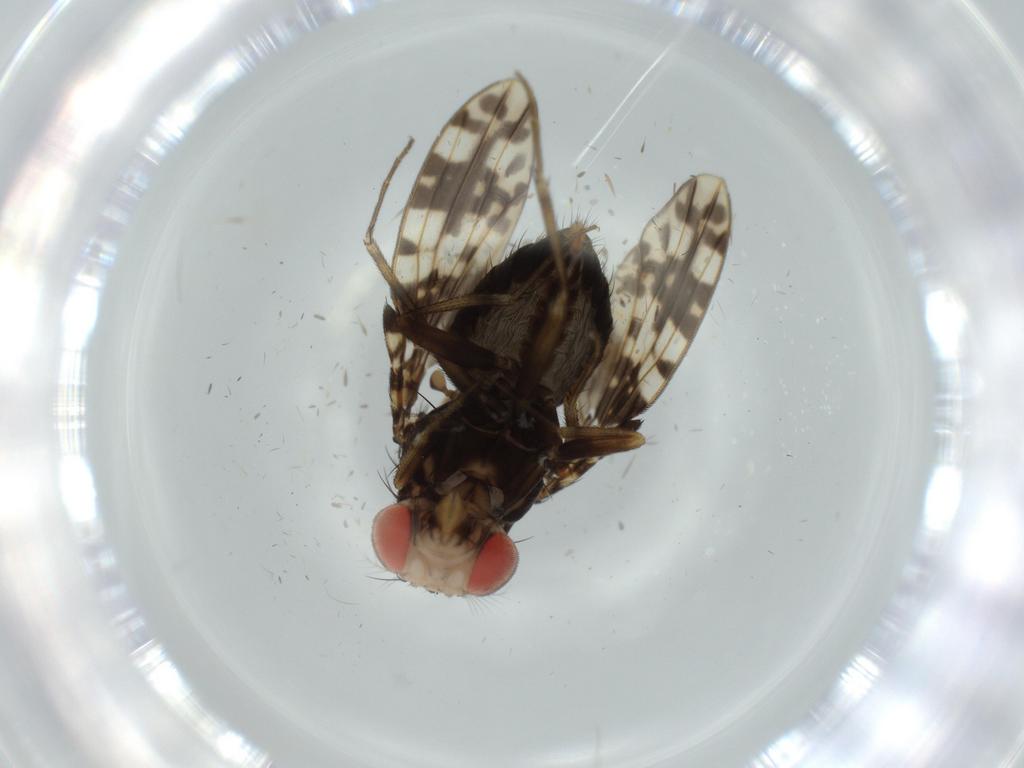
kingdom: Animalia
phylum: Arthropoda
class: Insecta
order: Diptera
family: Drosophilidae
